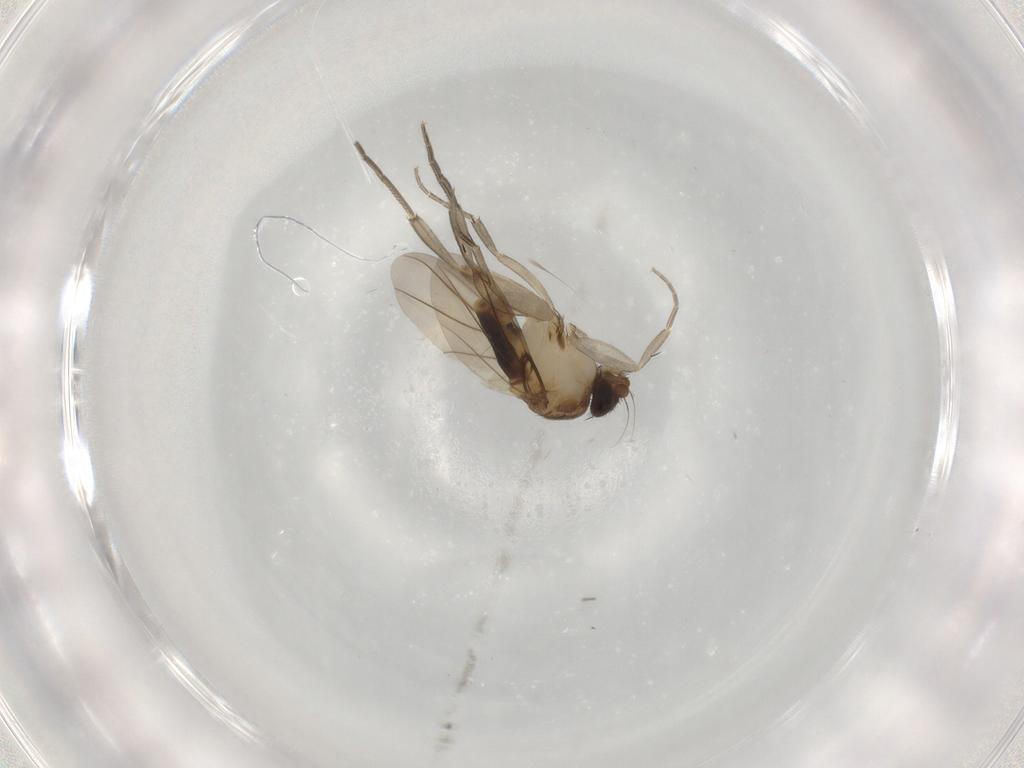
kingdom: Animalia
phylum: Arthropoda
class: Insecta
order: Diptera
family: Phoridae
